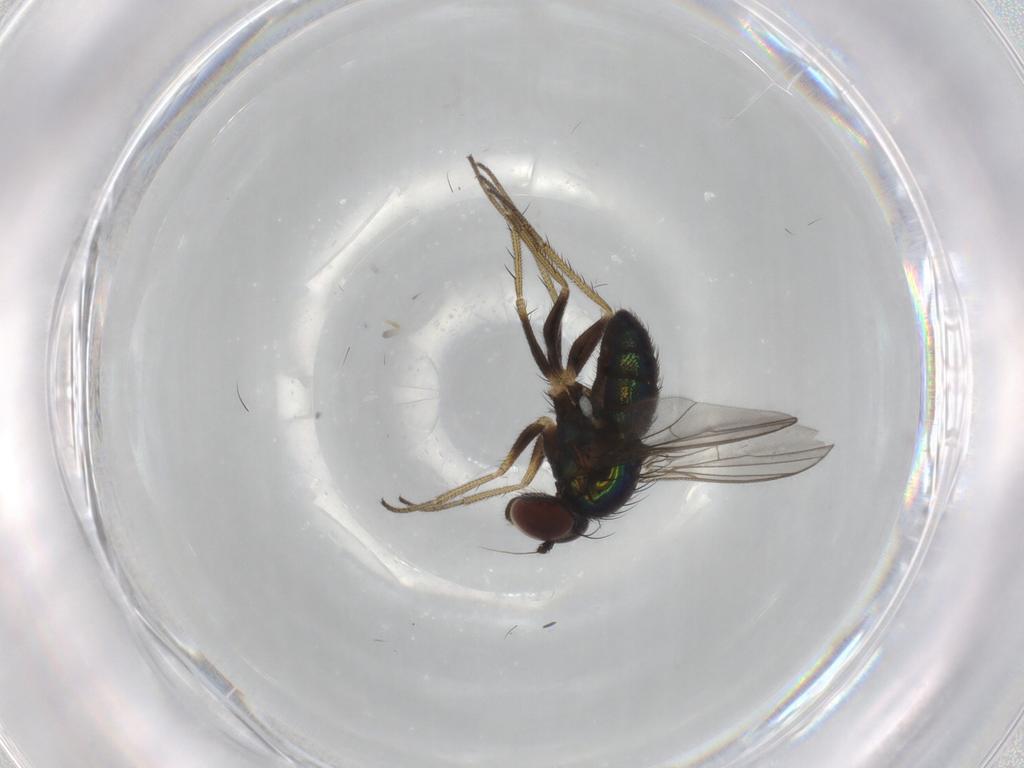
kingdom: Animalia
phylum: Arthropoda
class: Insecta
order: Diptera
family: Dolichopodidae
